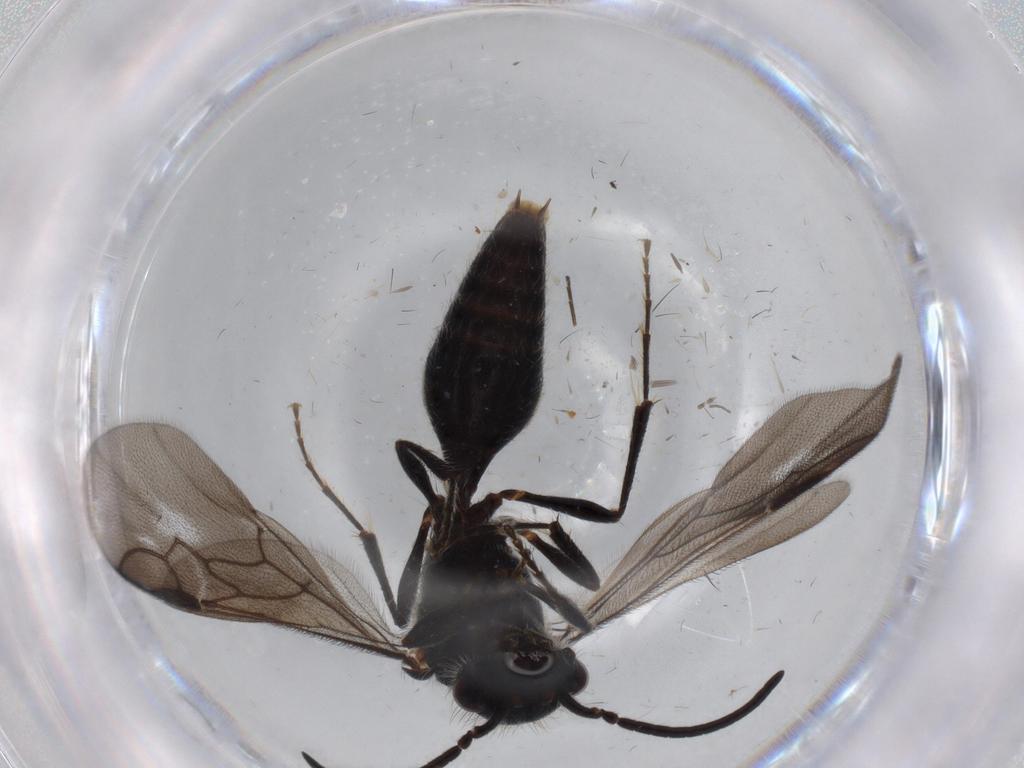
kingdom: Animalia
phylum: Arthropoda
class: Insecta
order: Hymenoptera
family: Mutillidae
